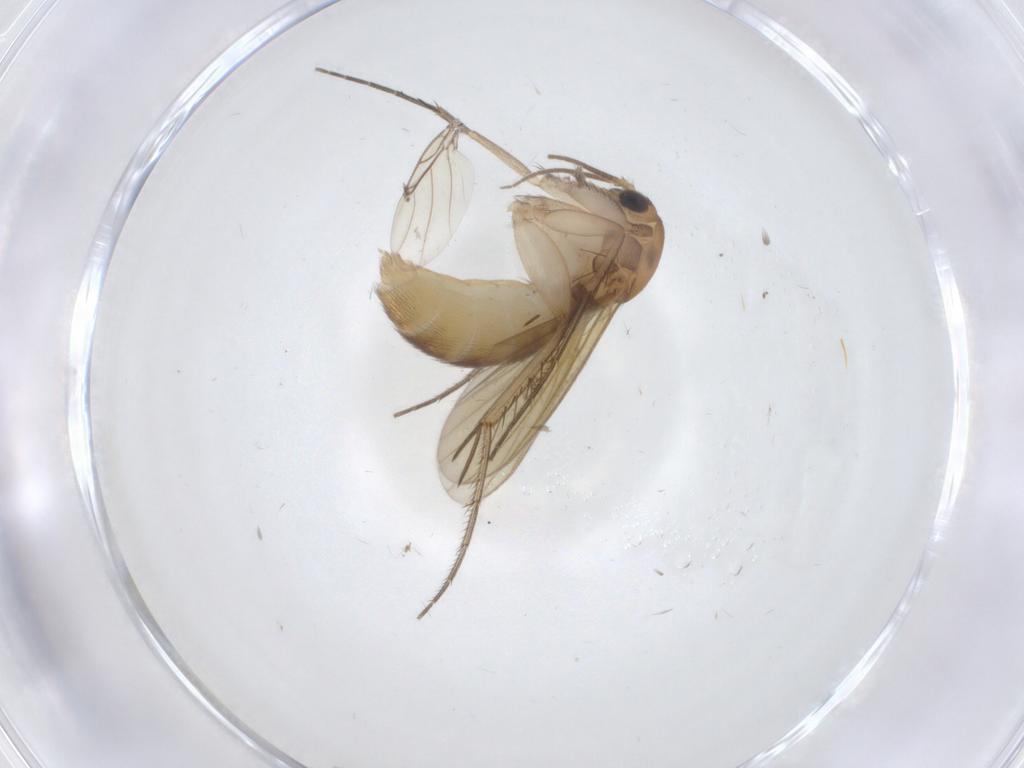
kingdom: Animalia
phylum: Arthropoda
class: Insecta
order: Diptera
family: Mycetophilidae
